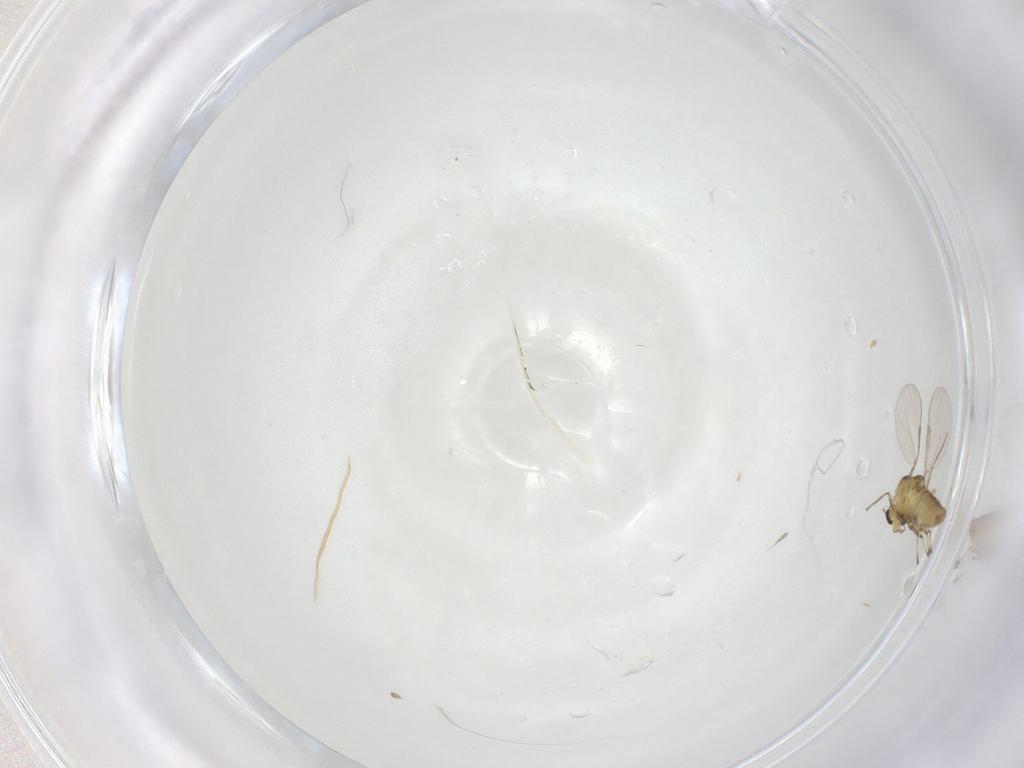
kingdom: Animalia
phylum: Arthropoda
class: Insecta
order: Diptera
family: Chironomidae
